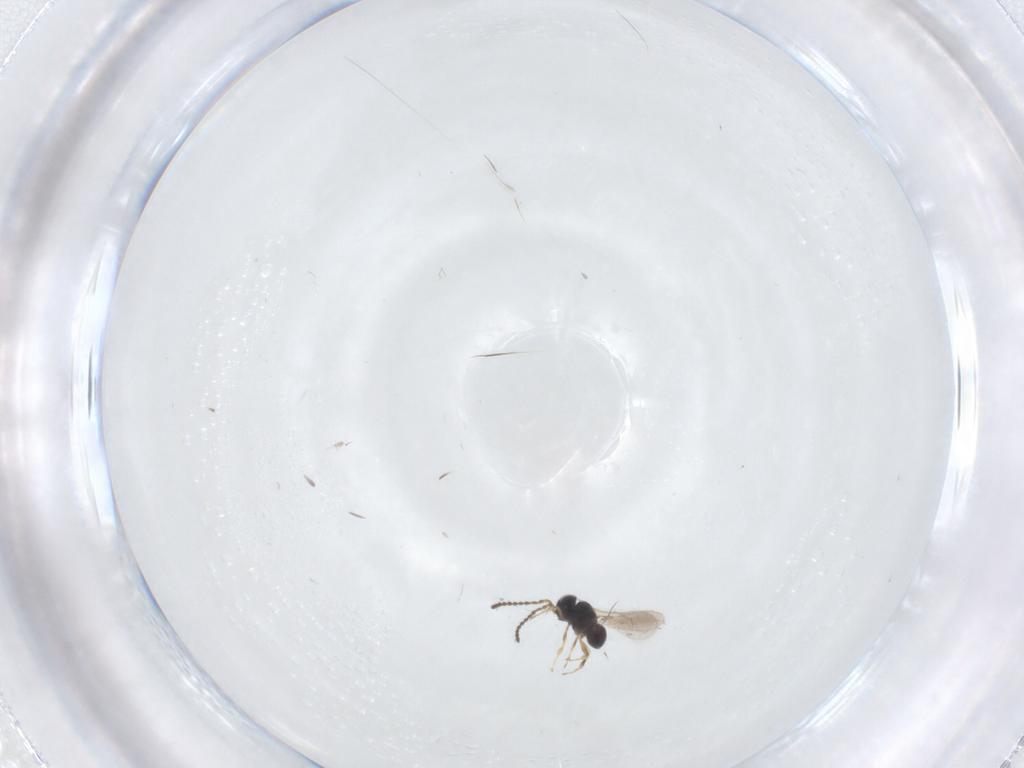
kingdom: Animalia
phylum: Arthropoda
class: Insecta
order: Hymenoptera
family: Scelionidae
